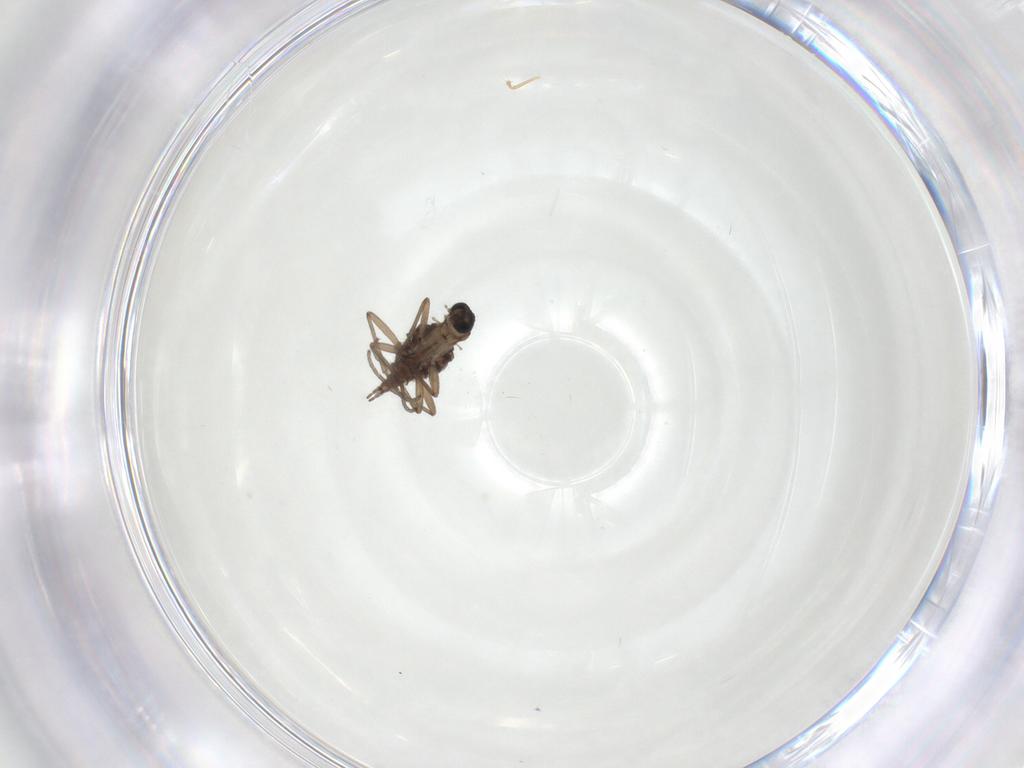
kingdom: Animalia
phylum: Arthropoda
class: Insecta
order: Diptera
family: Sciaridae
